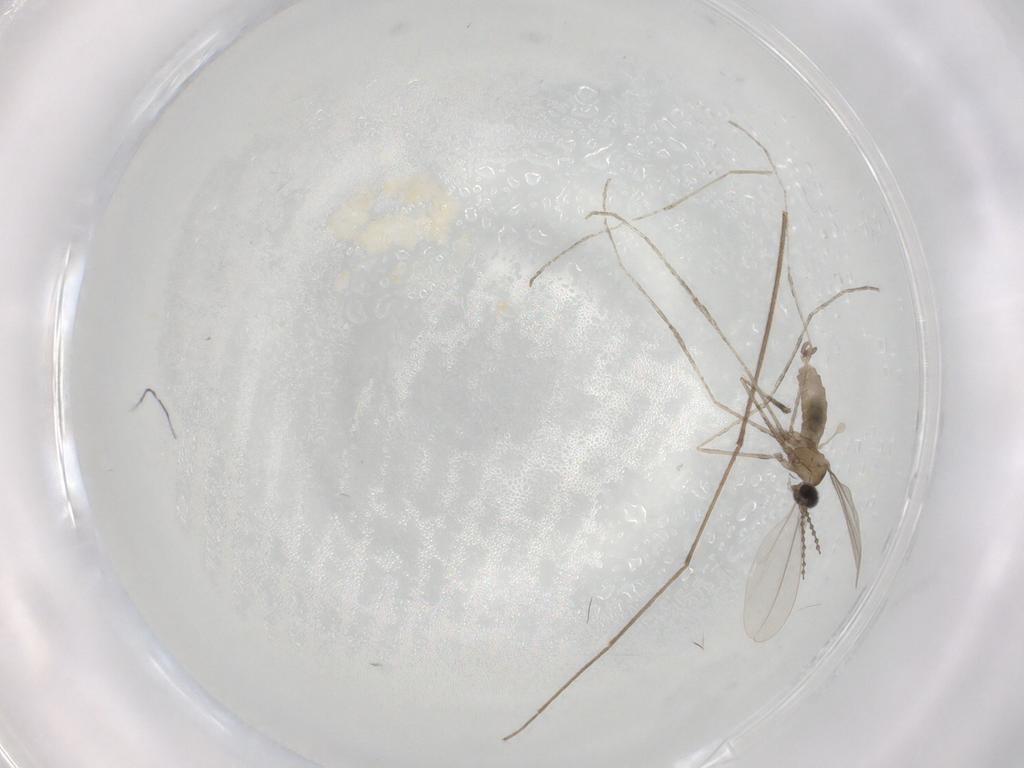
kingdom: Animalia
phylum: Arthropoda
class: Insecta
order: Diptera
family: Cecidomyiidae
